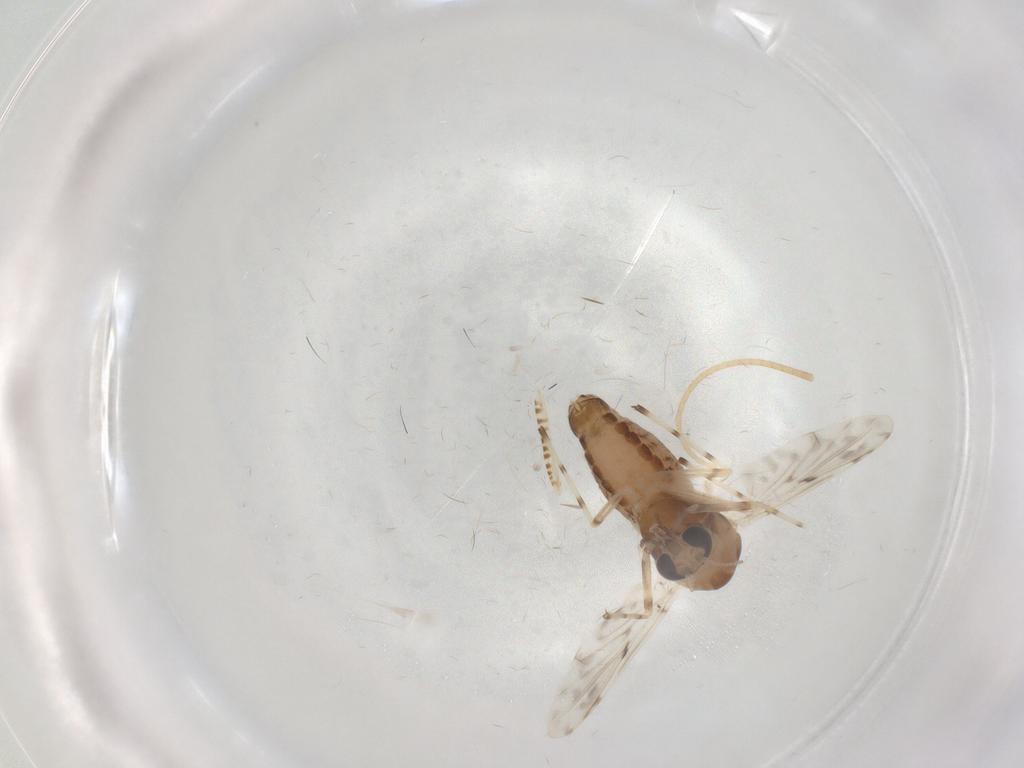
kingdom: Animalia
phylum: Arthropoda
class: Insecta
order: Diptera
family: Chironomidae
